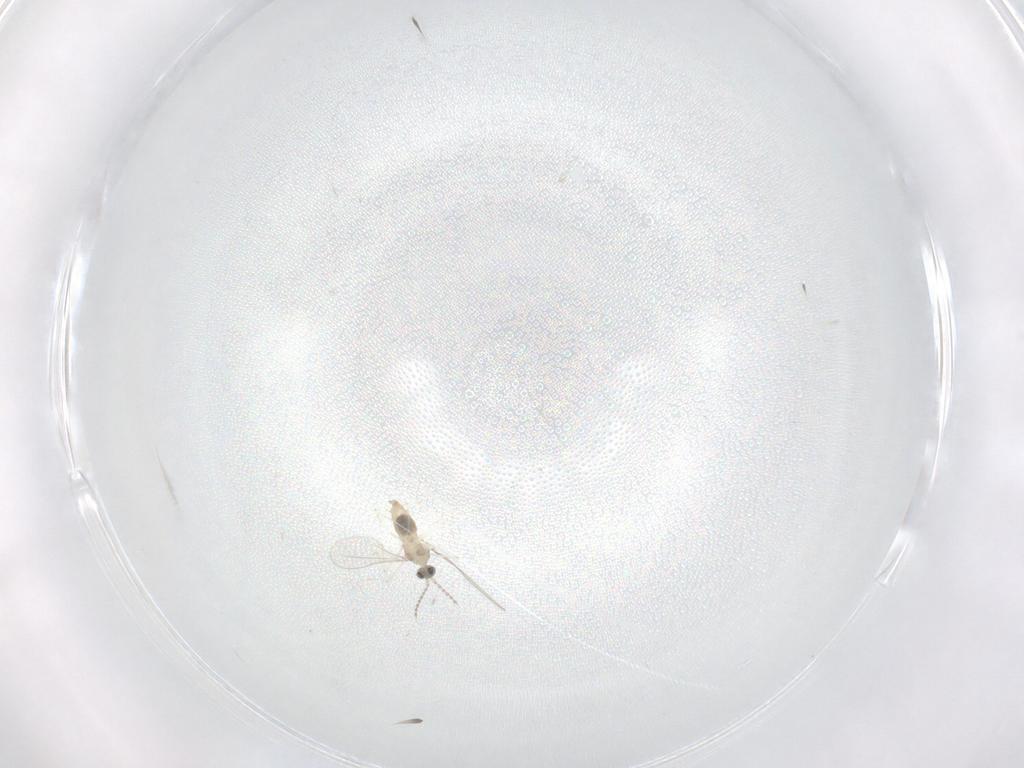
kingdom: Animalia
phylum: Arthropoda
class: Insecta
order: Diptera
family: Cecidomyiidae
